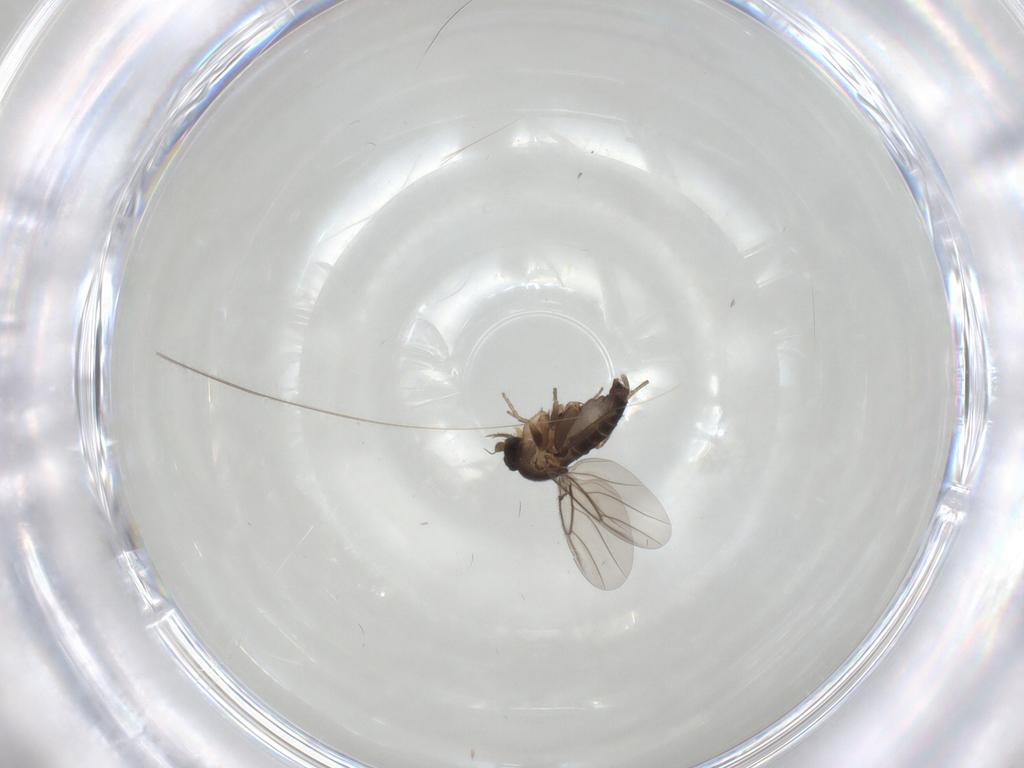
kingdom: Animalia
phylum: Arthropoda
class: Insecta
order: Diptera
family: Phoridae
